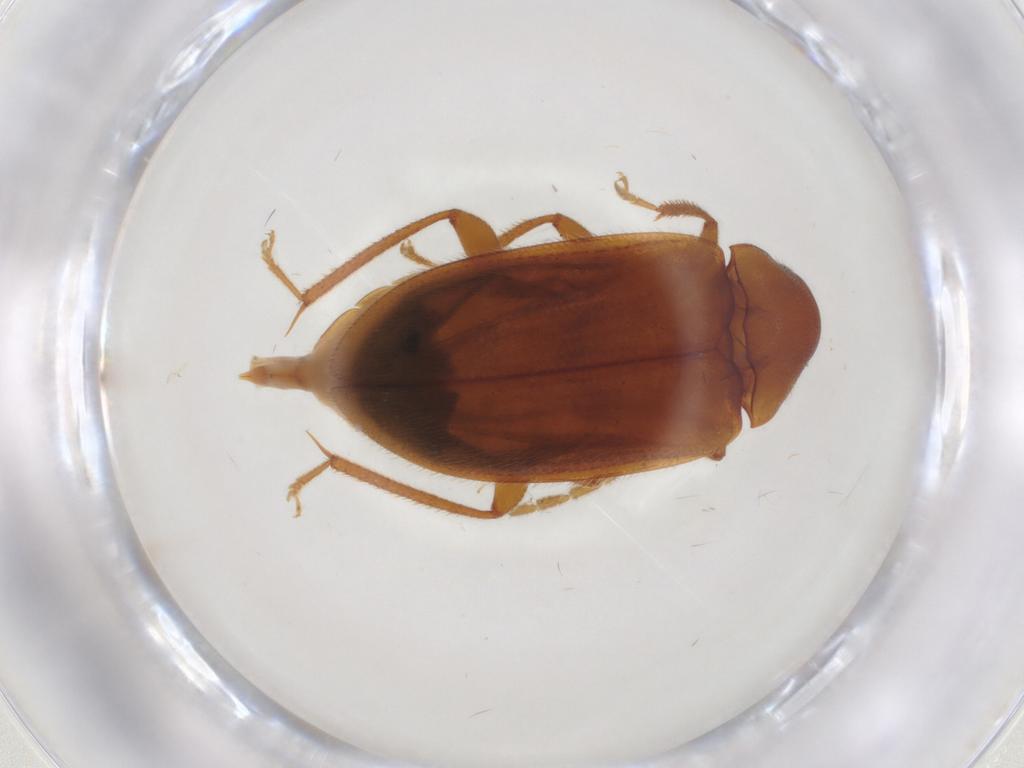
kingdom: Animalia
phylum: Arthropoda
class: Insecta
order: Coleoptera
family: Ptilodactylidae
